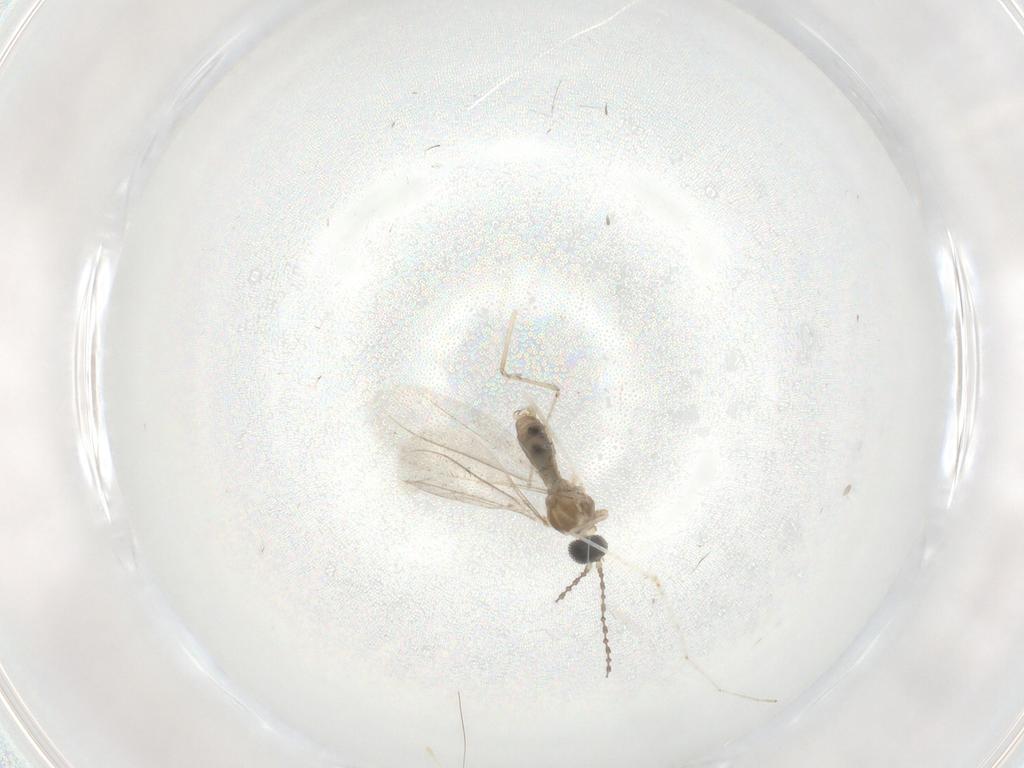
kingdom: Animalia
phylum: Arthropoda
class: Insecta
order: Diptera
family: Cecidomyiidae
